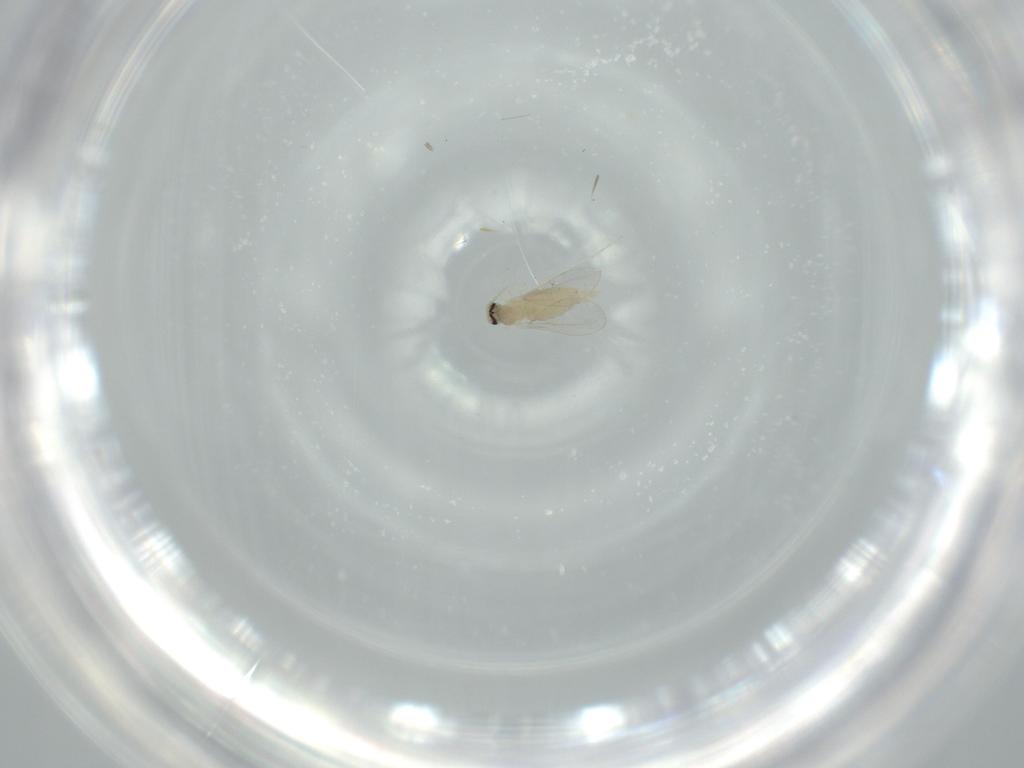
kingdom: Animalia
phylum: Arthropoda
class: Insecta
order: Diptera
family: Cecidomyiidae
